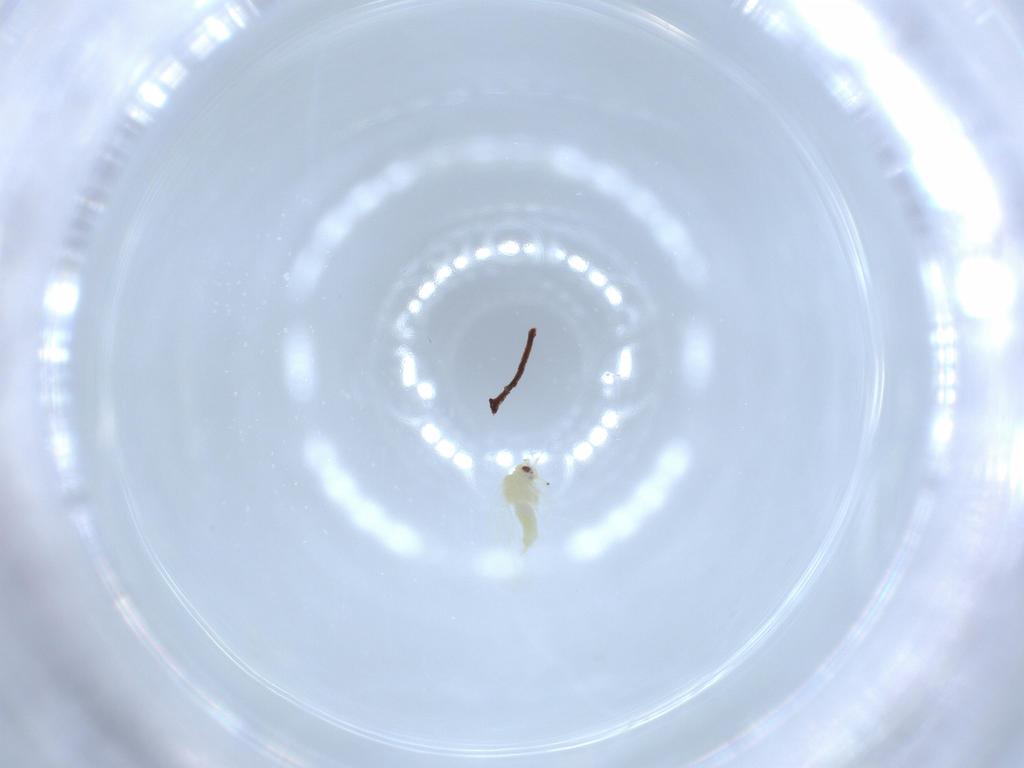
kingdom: Animalia
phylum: Arthropoda
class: Insecta
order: Hemiptera
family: Aleyrodidae
